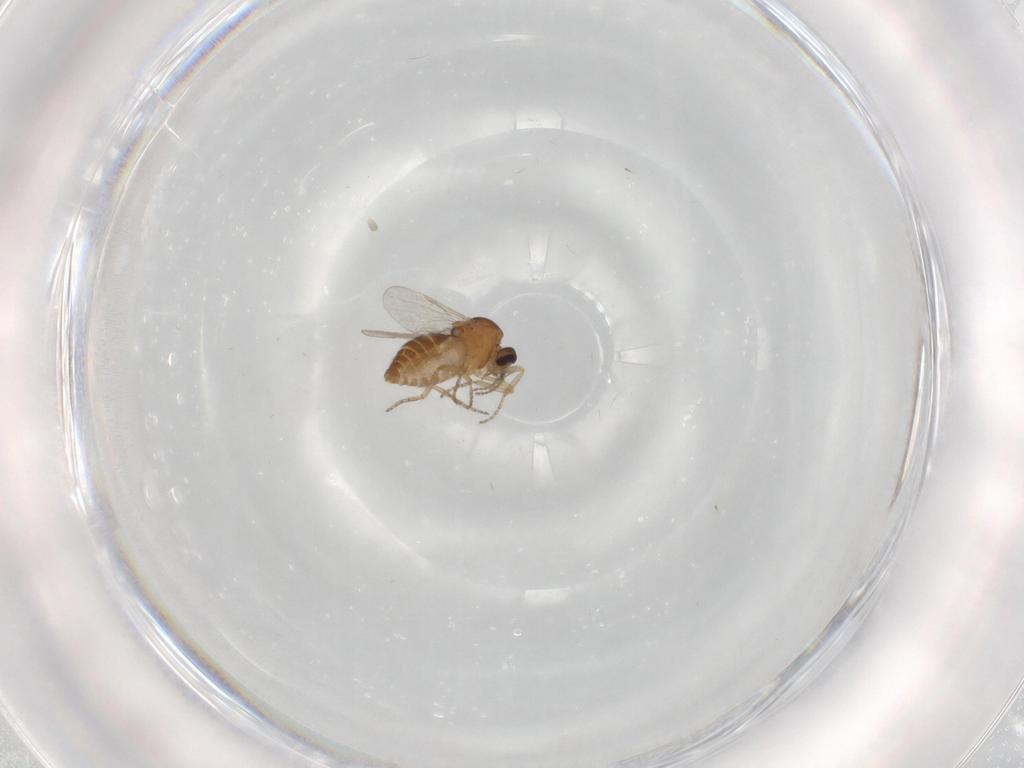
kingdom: Animalia
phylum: Arthropoda
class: Insecta
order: Diptera
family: Ceratopogonidae
